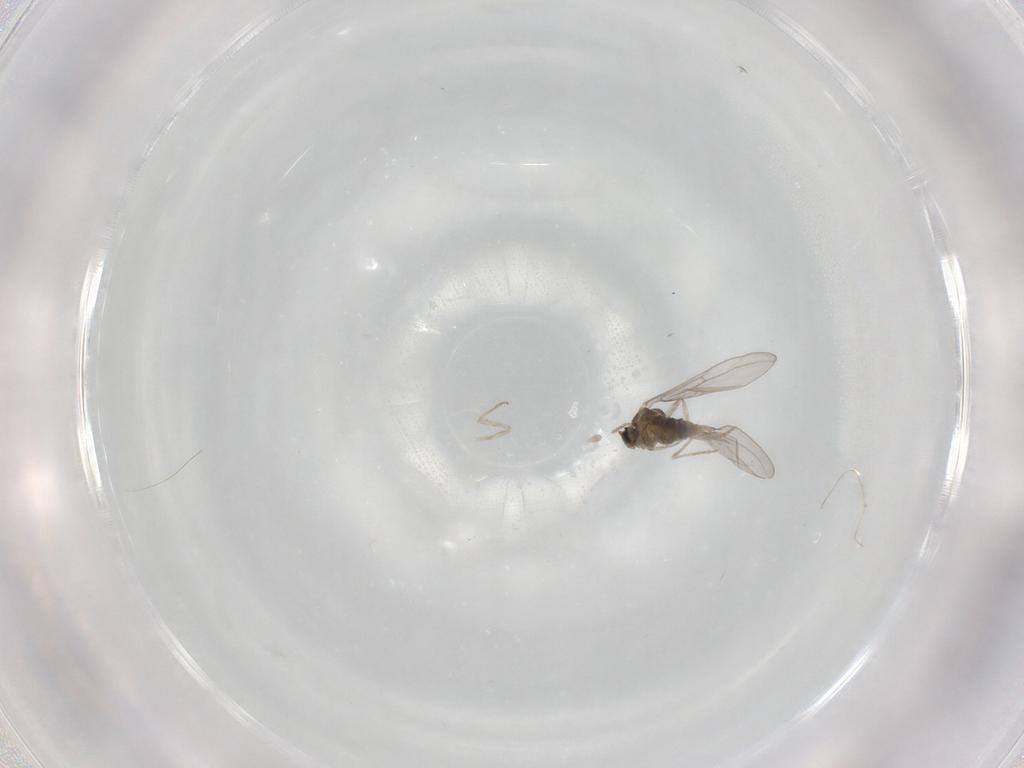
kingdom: Animalia
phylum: Arthropoda
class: Insecta
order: Diptera
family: Cecidomyiidae
